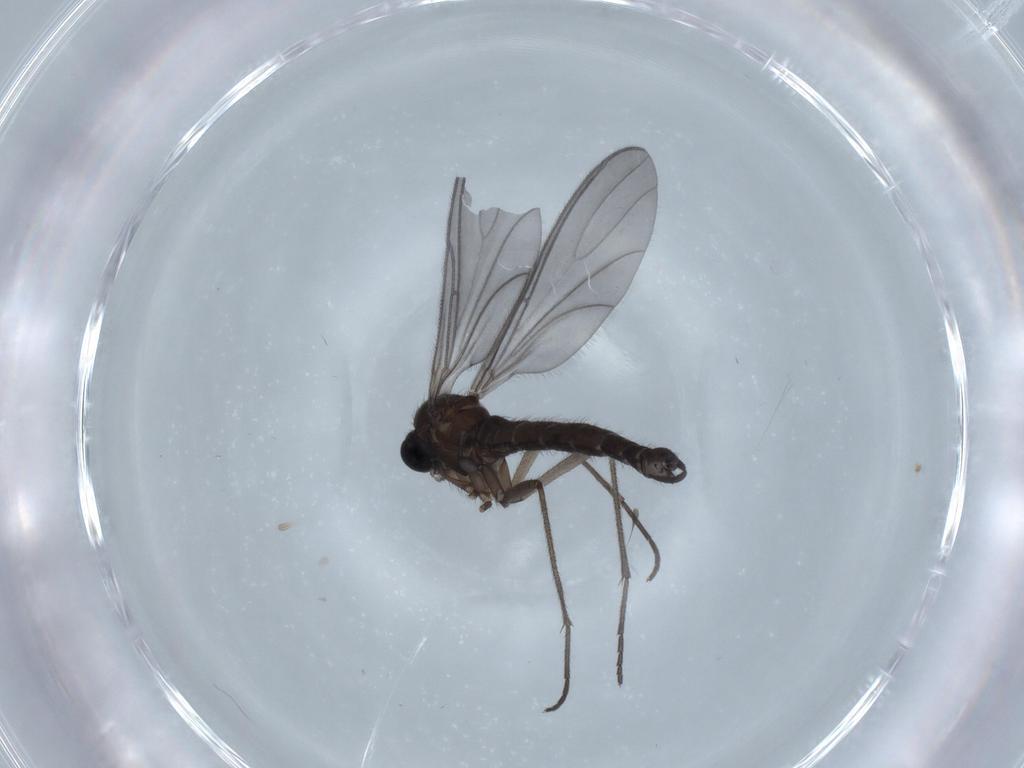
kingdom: Animalia
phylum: Arthropoda
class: Insecta
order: Diptera
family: Sciaridae
